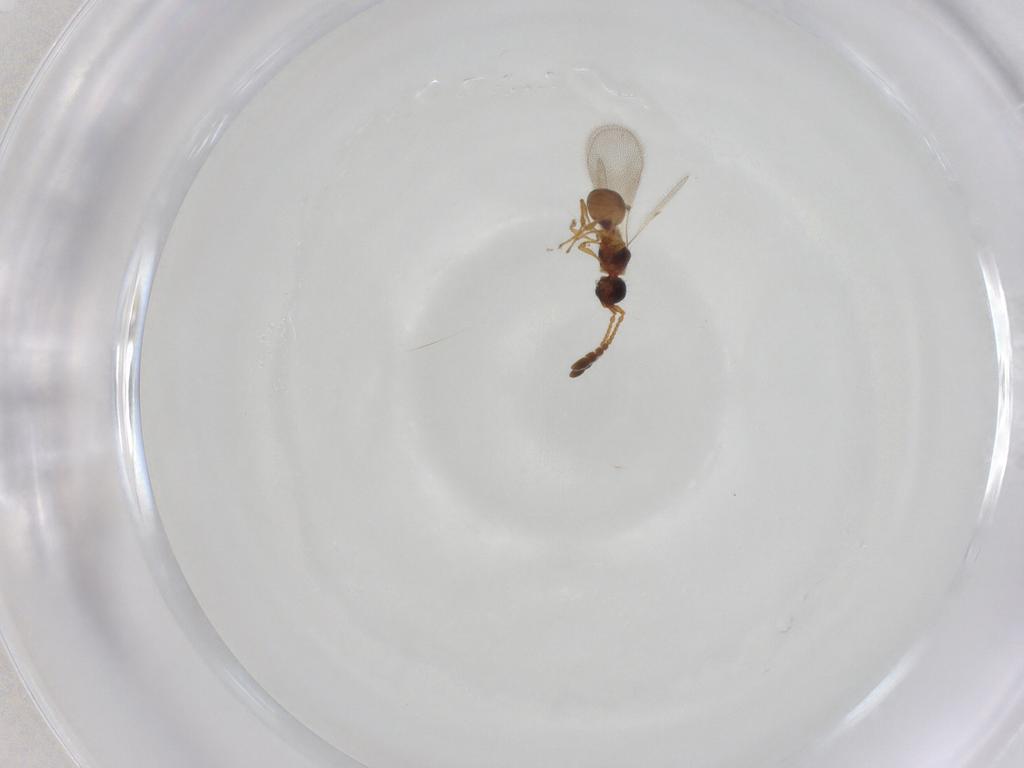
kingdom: Animalia
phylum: Arthropoda
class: Insecta
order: Hymenoptera
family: Diapriidae
